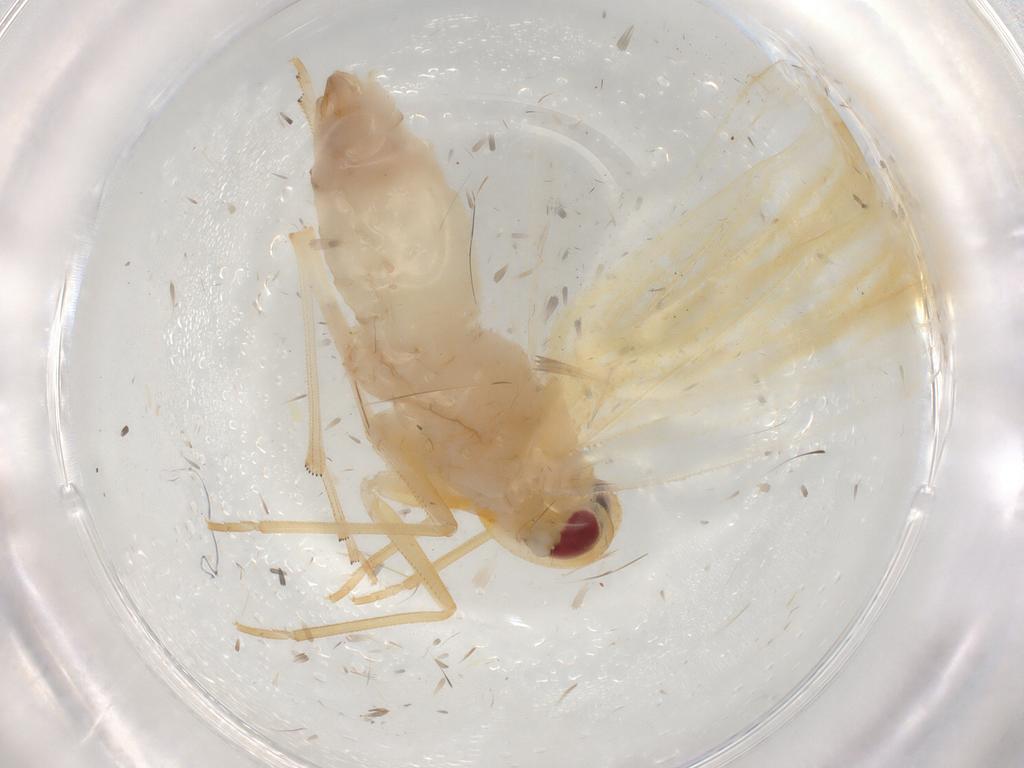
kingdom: Animalia
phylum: Arthropoda
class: Insecta
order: Hemiptera
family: Derbidae
